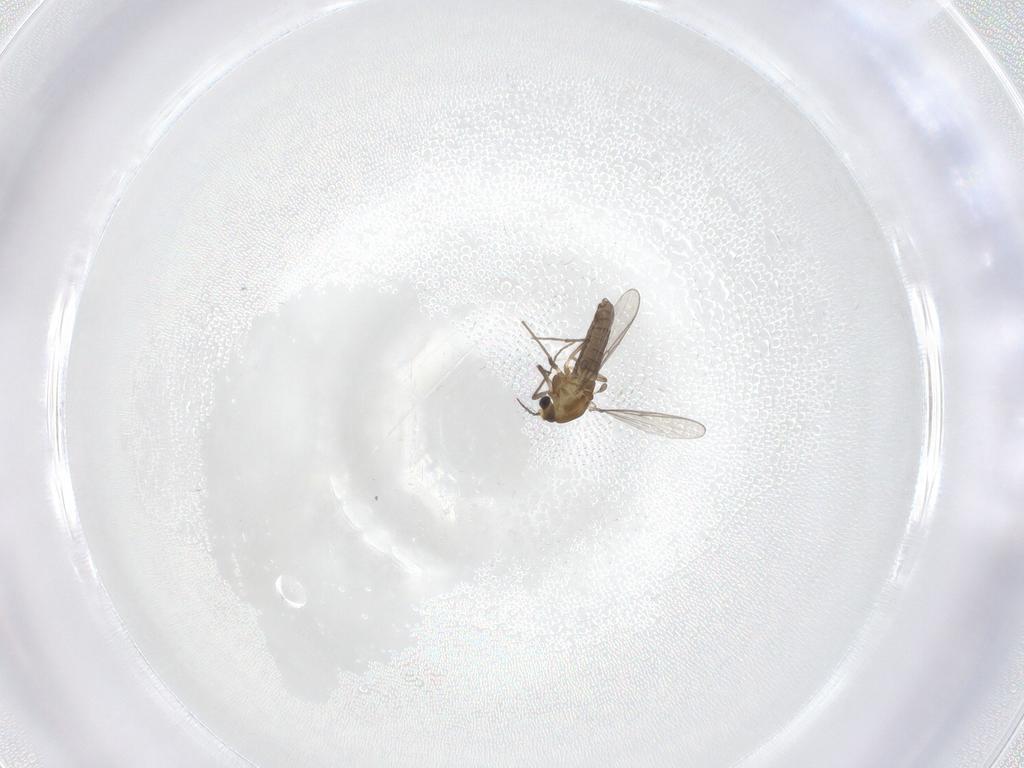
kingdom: Animalia
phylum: Arthropoda
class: Insecta
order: Diptera
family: Chironomidae
